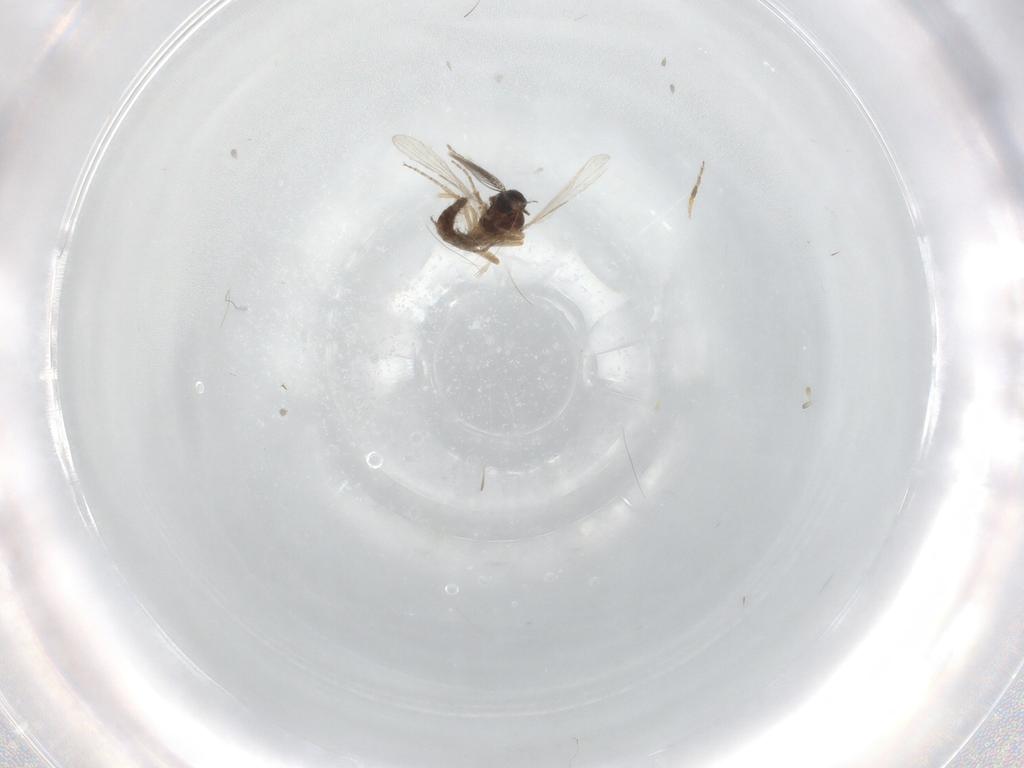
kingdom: Animalia
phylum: Arthropoda
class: Insecta
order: Diptera
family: Ceratopogonidae
